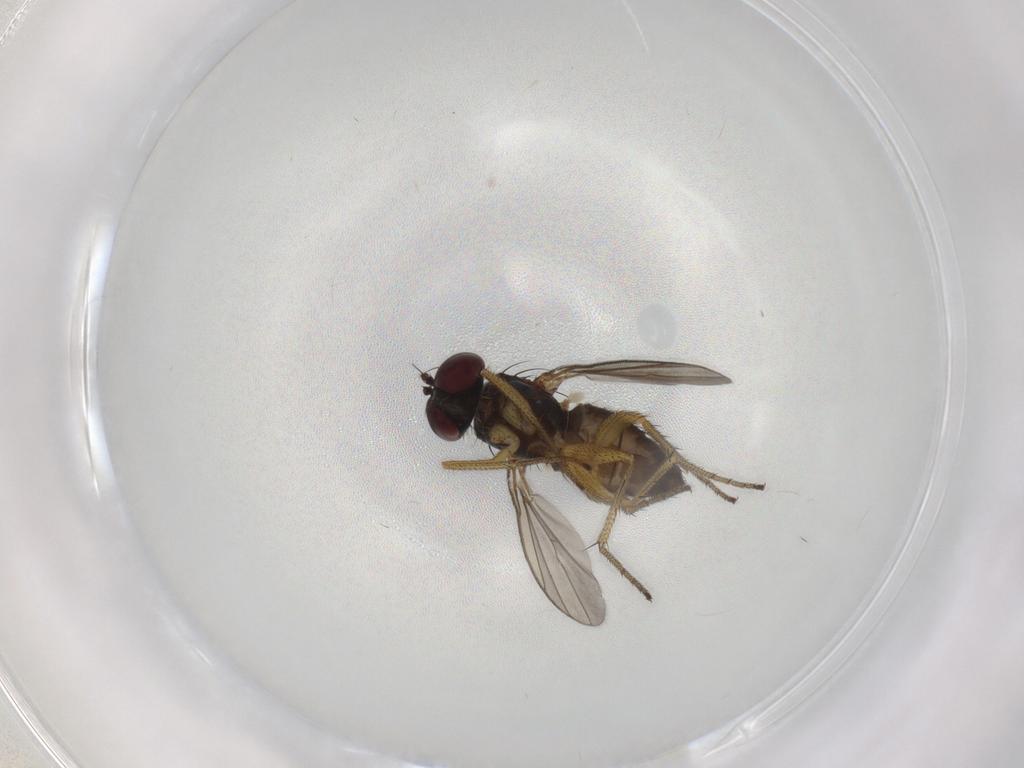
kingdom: Animalia
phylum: Arthropoda
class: Insecta
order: Diptera
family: Dolichopodidae
